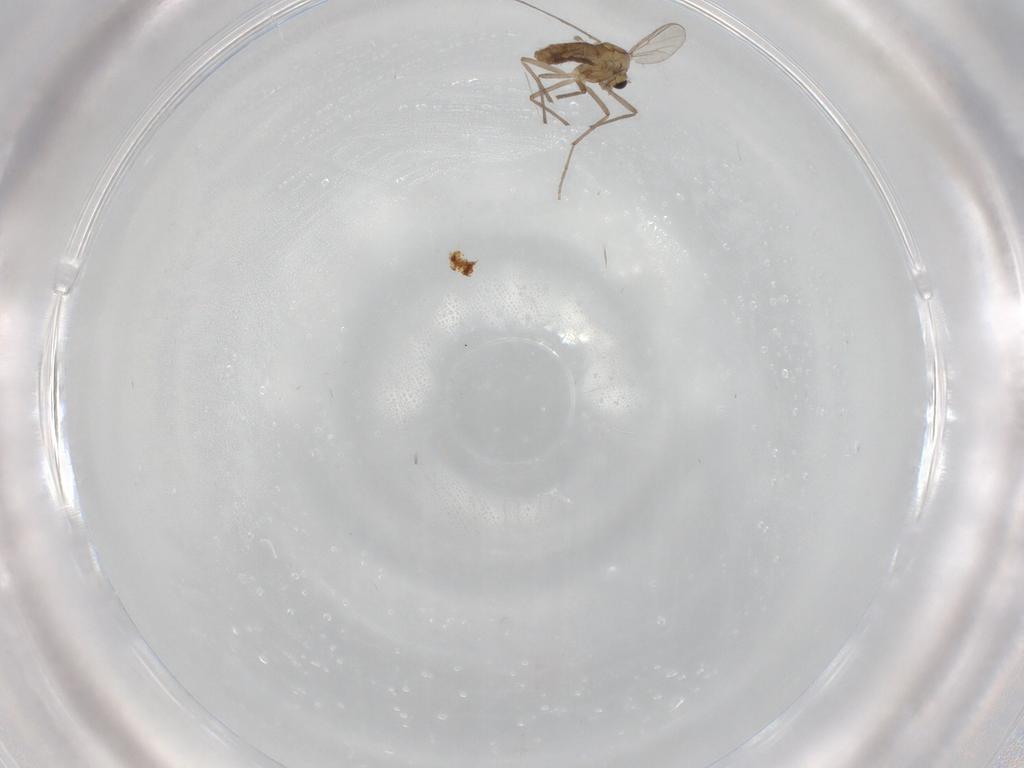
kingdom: Animalia
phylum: Arthropoda
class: Insecta
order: Diptera
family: Chironomidae
